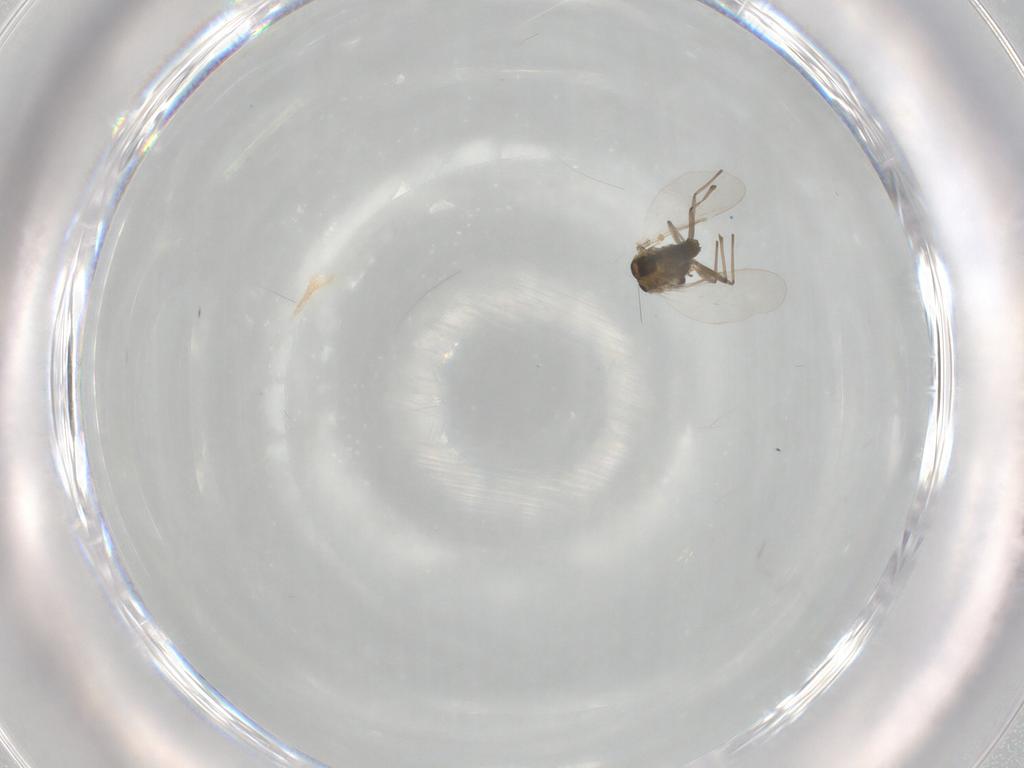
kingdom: Animalia
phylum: Arthropoda
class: Insecta
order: Diptera
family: Chironomidae
